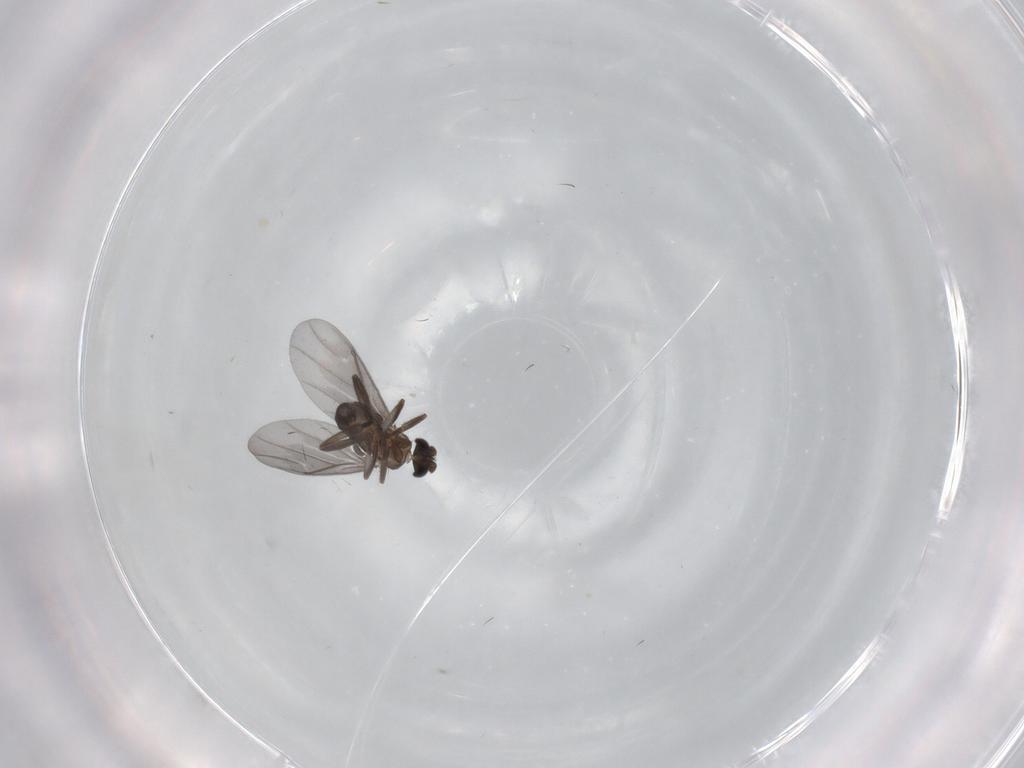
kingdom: Animalia
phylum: Arthropoda
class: Insecta
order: Diptera
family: Phoridae
